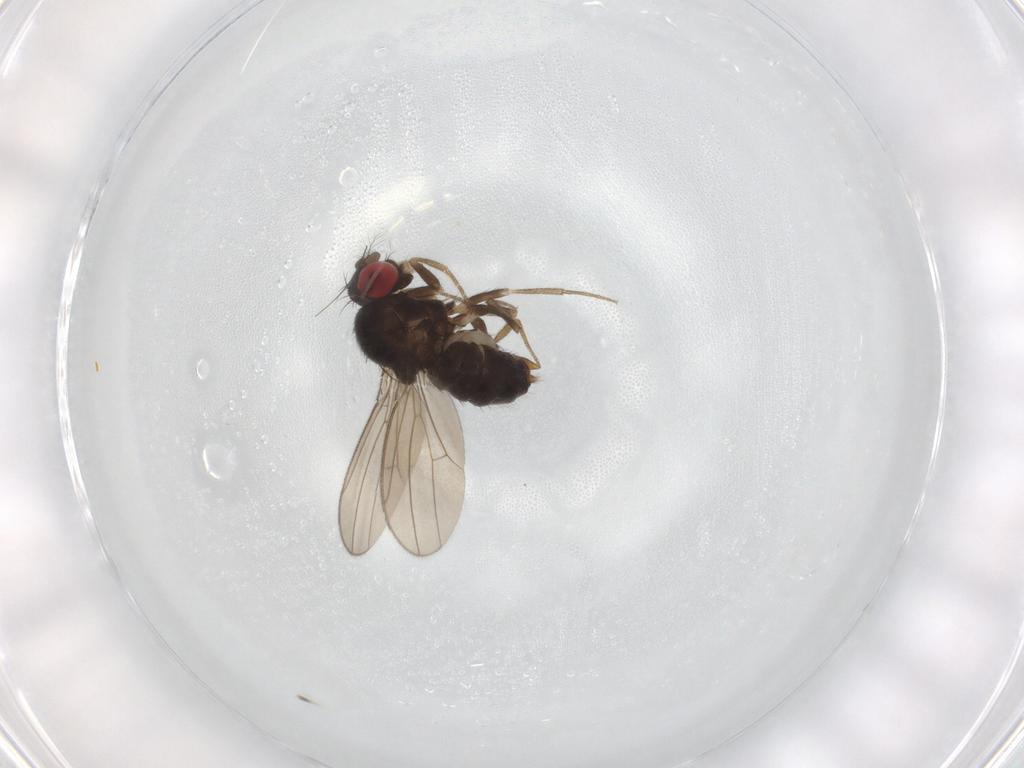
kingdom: Animalia
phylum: Arthropoda
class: Insecta
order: Diptera
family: Drosophilidae
